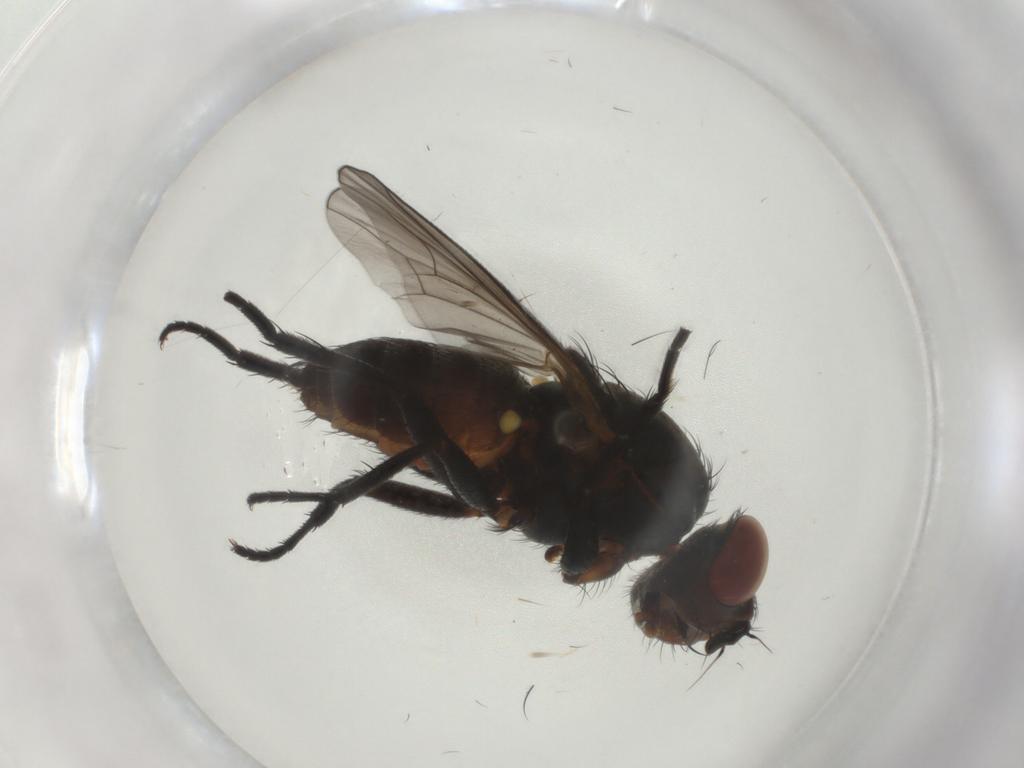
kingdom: Animalia
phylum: Arthropoda
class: Insecta
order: Diptera
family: Anthomyiidae
